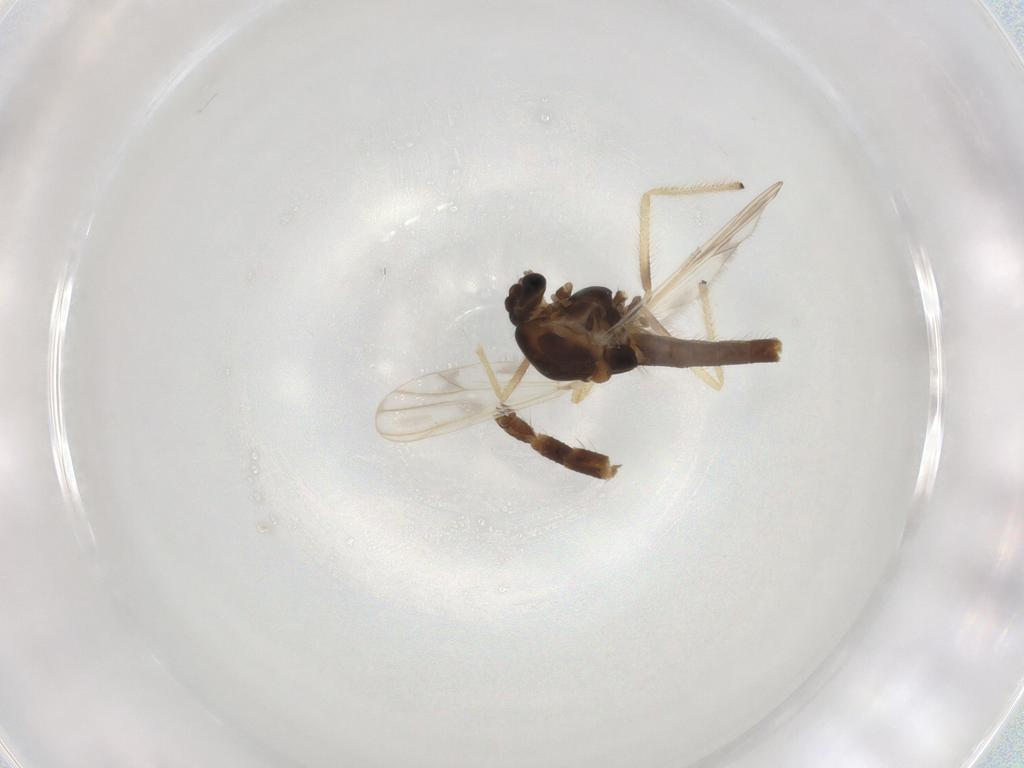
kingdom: Animalia
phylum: Arthropoda
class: Insecta
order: Diptera
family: Chironomidae
